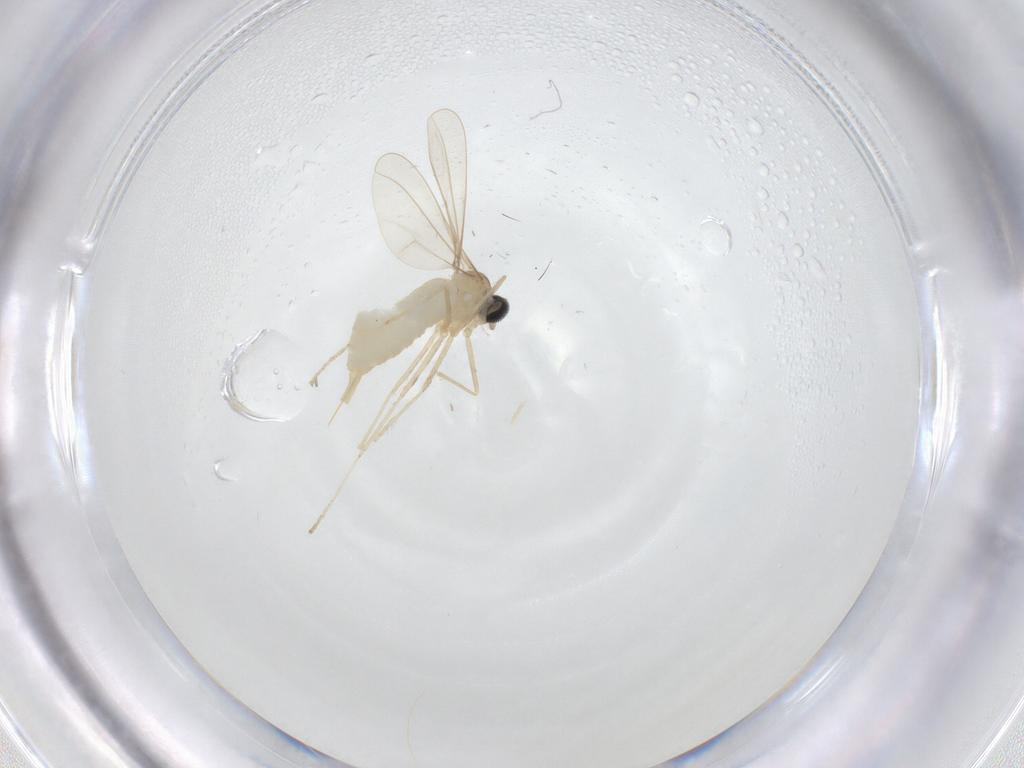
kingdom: Animalia
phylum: Arthropoda
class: Insecta
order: Diptera
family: Cecidomyiidae
